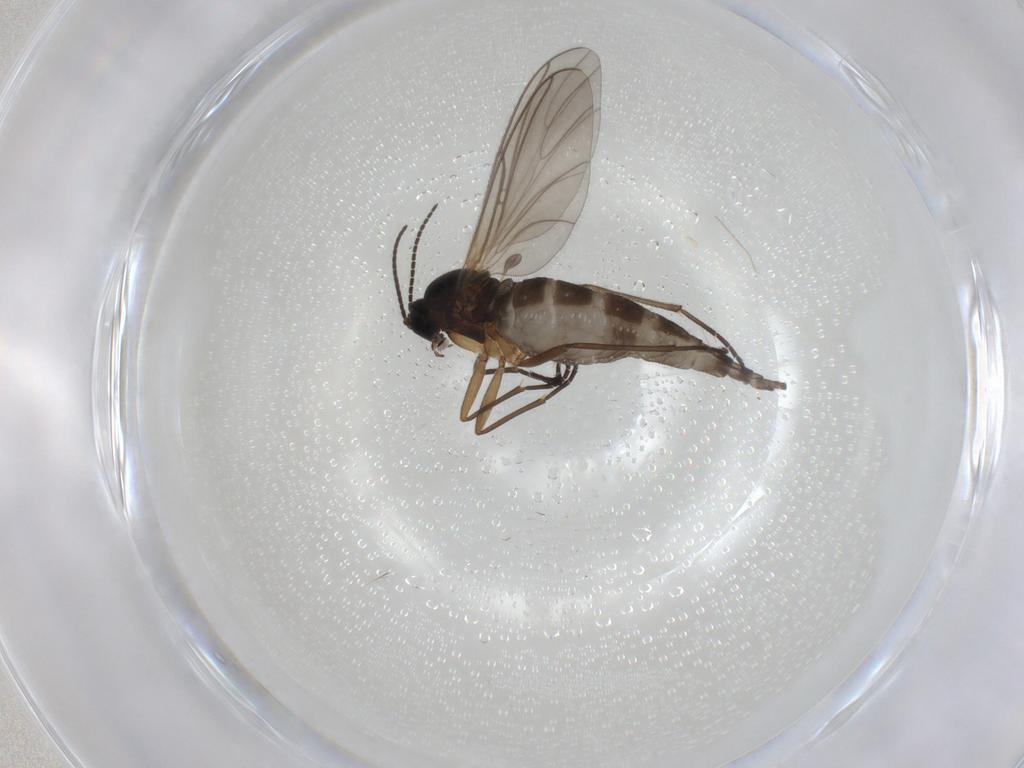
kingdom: Animalia
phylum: Arthropoda
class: Insecta
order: Diptera
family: Sciaridae
